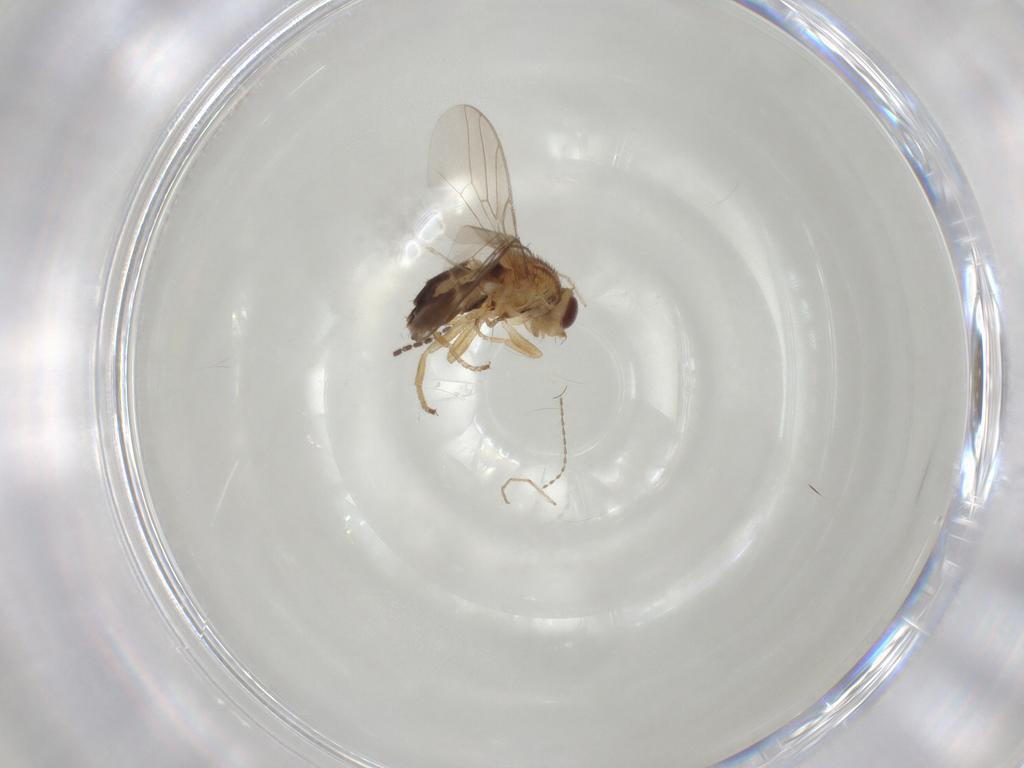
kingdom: Animalia
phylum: Arthropoda
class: Insecta
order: Diptera
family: Chloropidae
